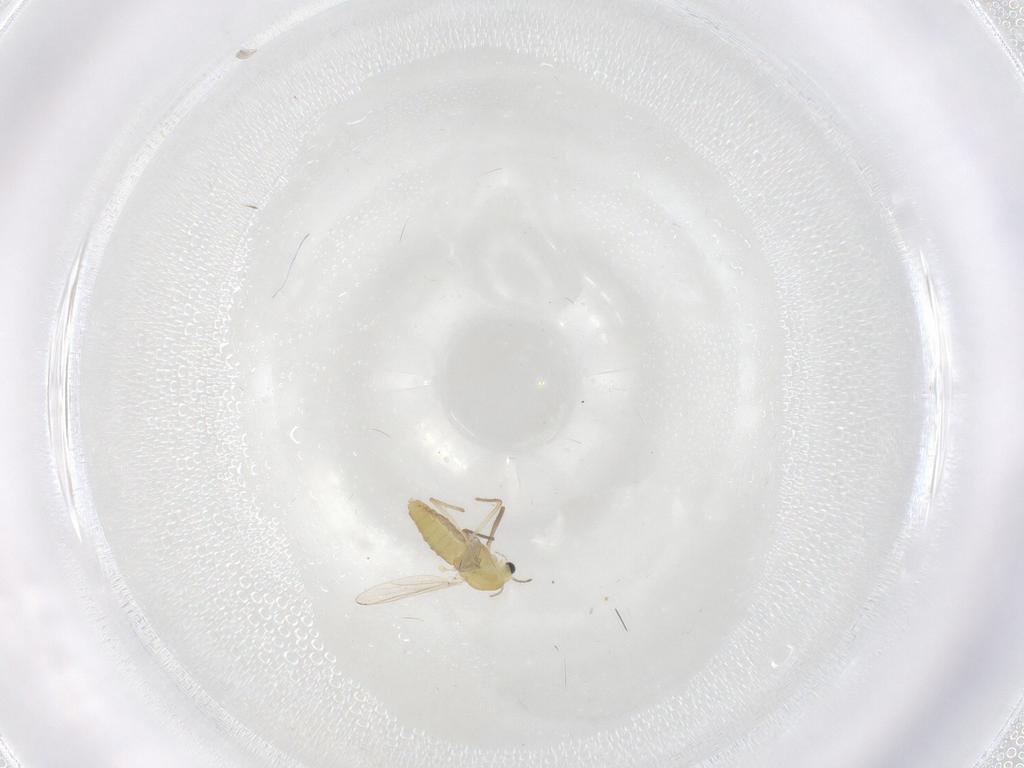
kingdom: Animalia
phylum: Arthropoda
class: Insecta
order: Diptera
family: Chironomidae
